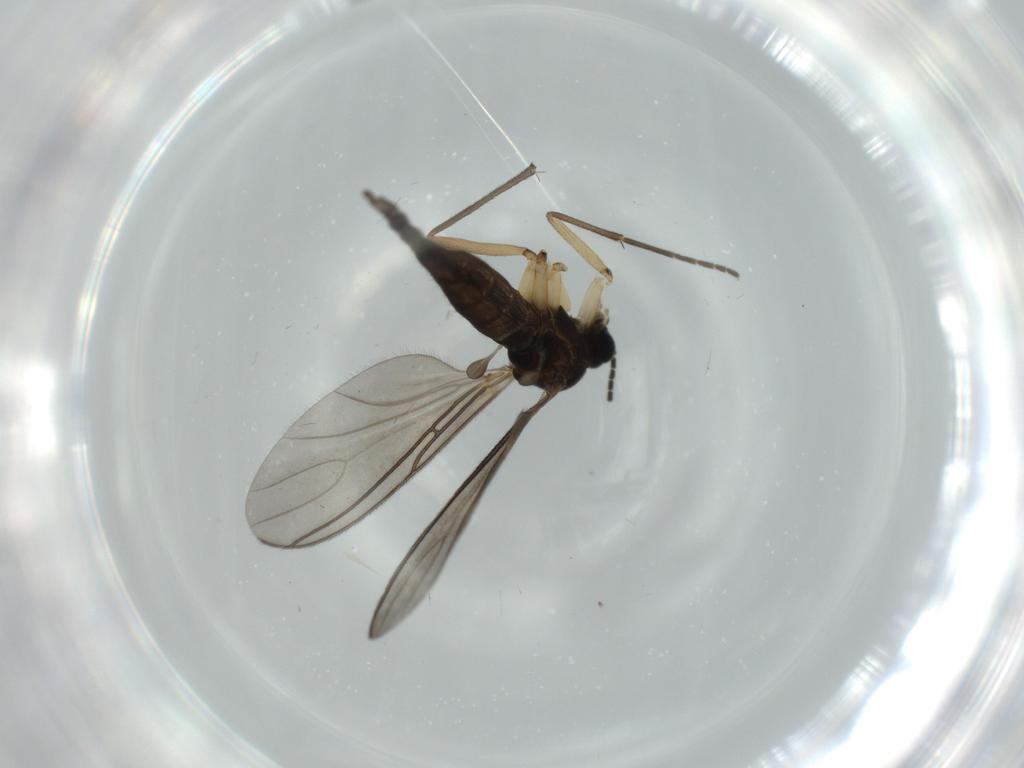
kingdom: Animalia
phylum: Arthropoda
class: Insecta
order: Diptera
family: Sciaridae
